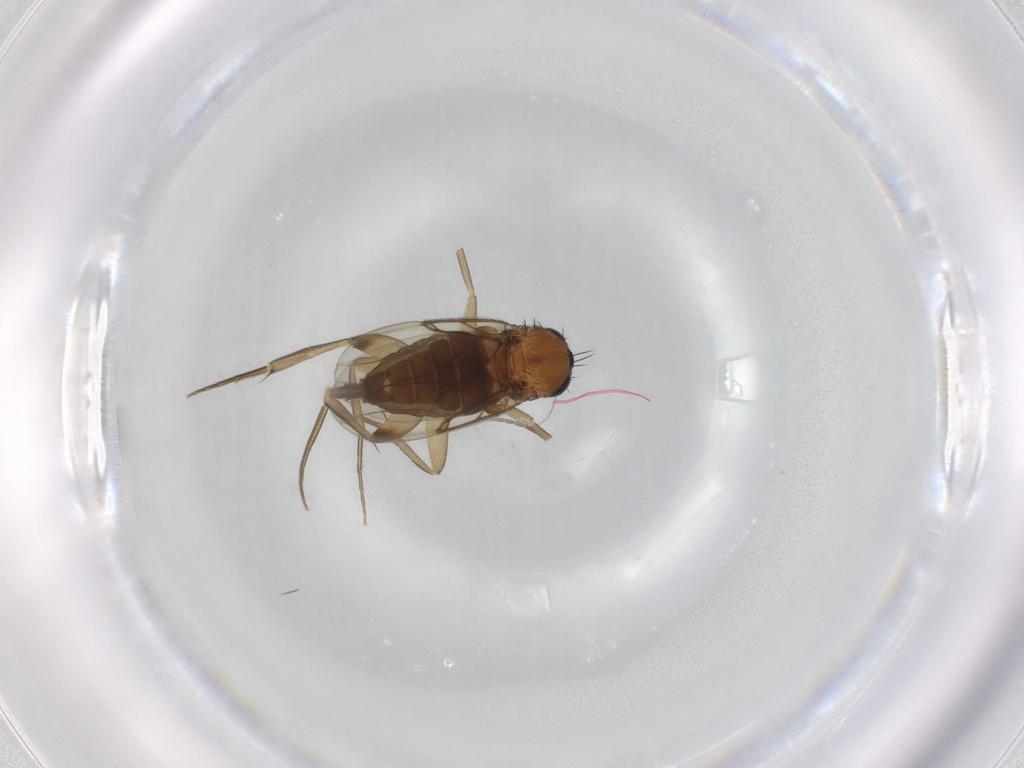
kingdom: Animalia
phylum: Arthropoda
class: Insecta
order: Diptera
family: Phoridae
